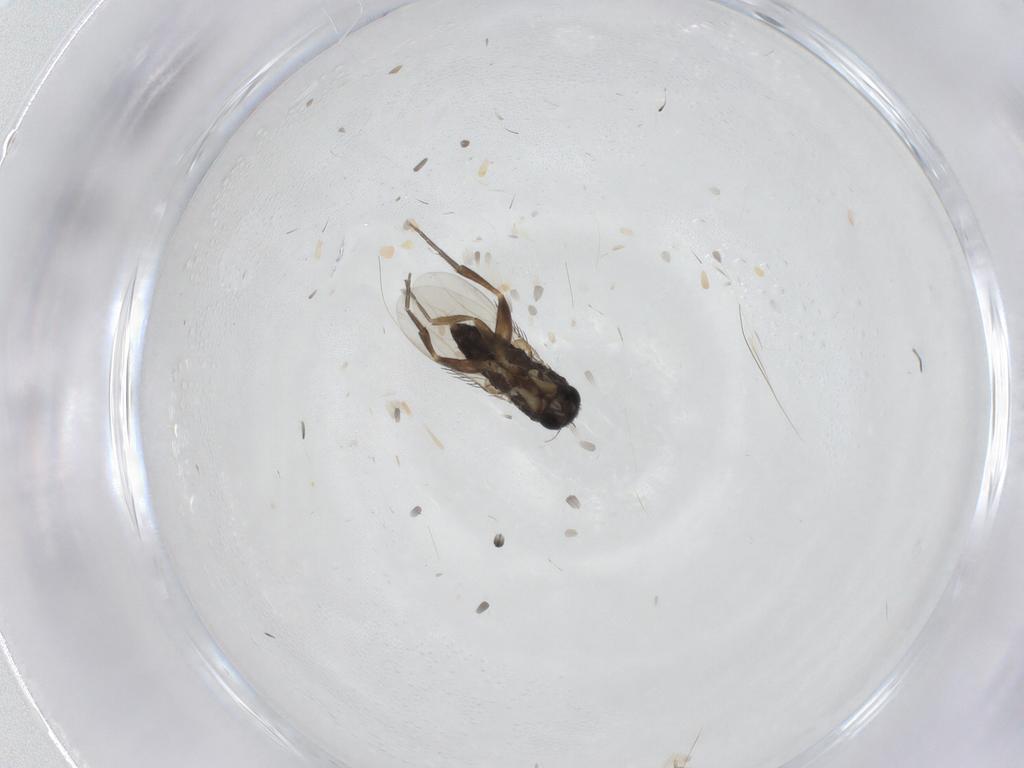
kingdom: Animalia
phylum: Arthropoda
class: Insecta
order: Diptera
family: Phoridae
